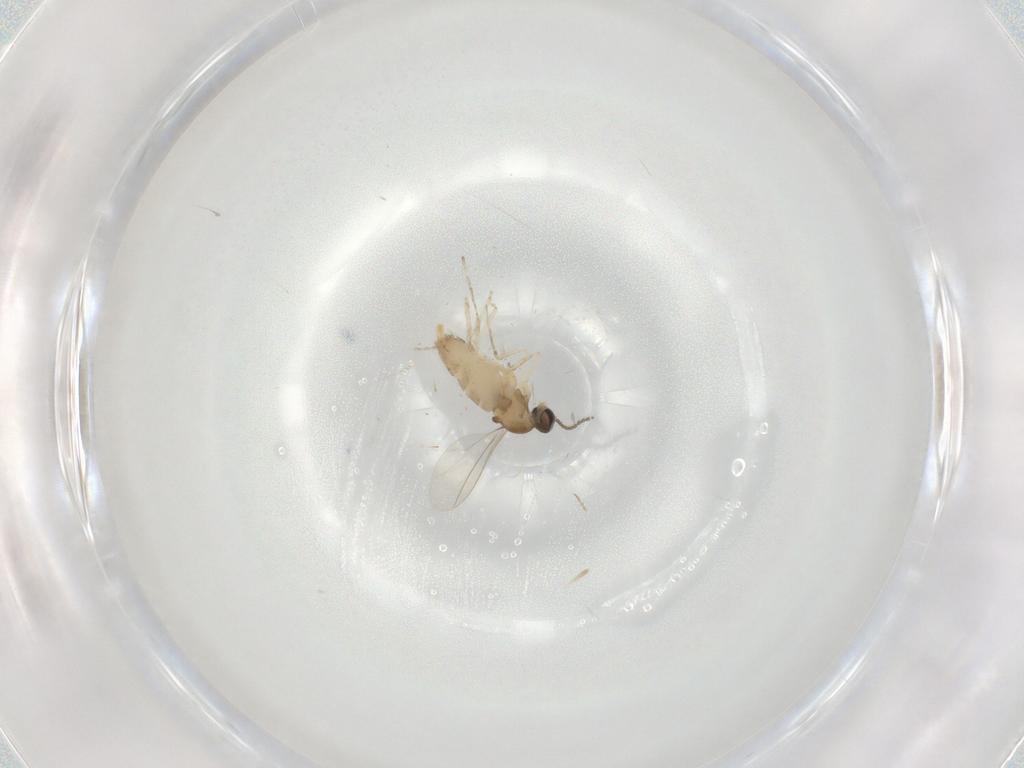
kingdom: Animalia
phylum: Arthropoda
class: Insecta
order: Diptera
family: Cecidomyiidae
